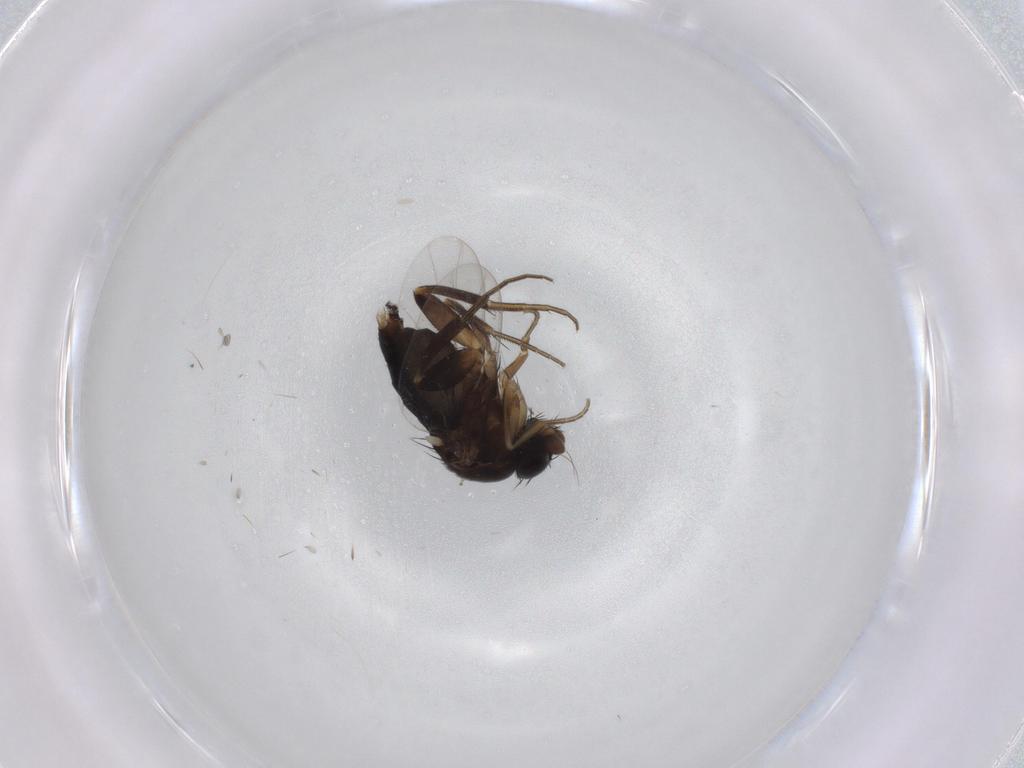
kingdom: Animalia
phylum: Arthropoda
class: Insecta
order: Diptera
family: Phoridae
